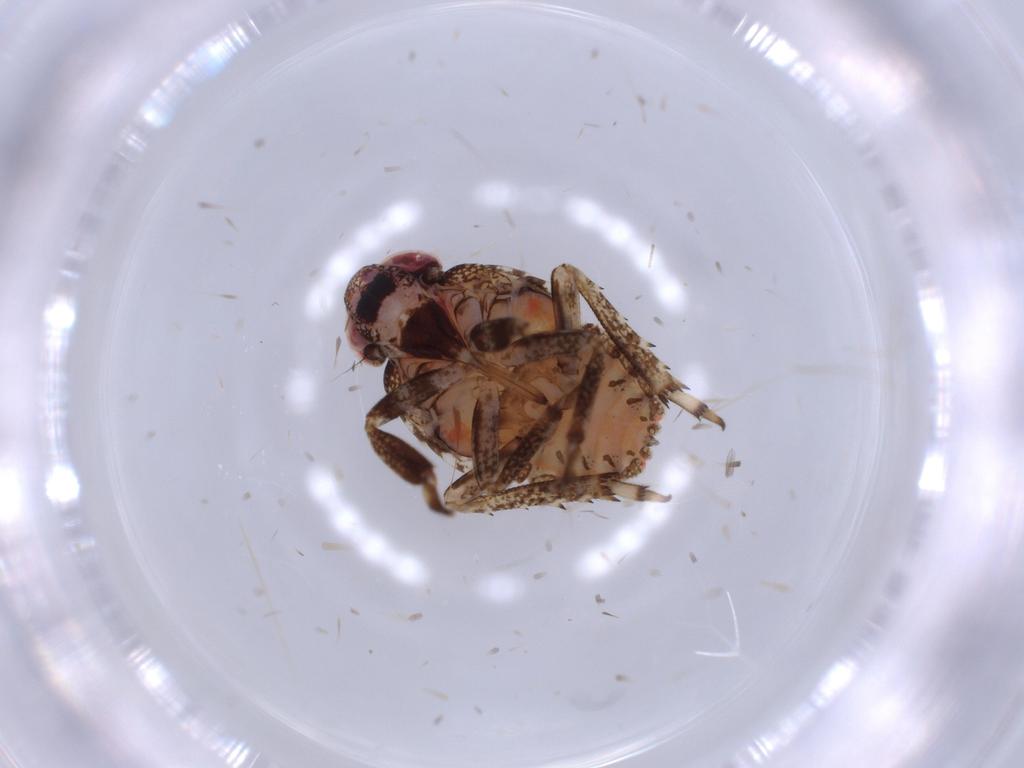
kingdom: Animalia
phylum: Arthropoda
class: Insecta
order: Hemiptera
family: Issidae
